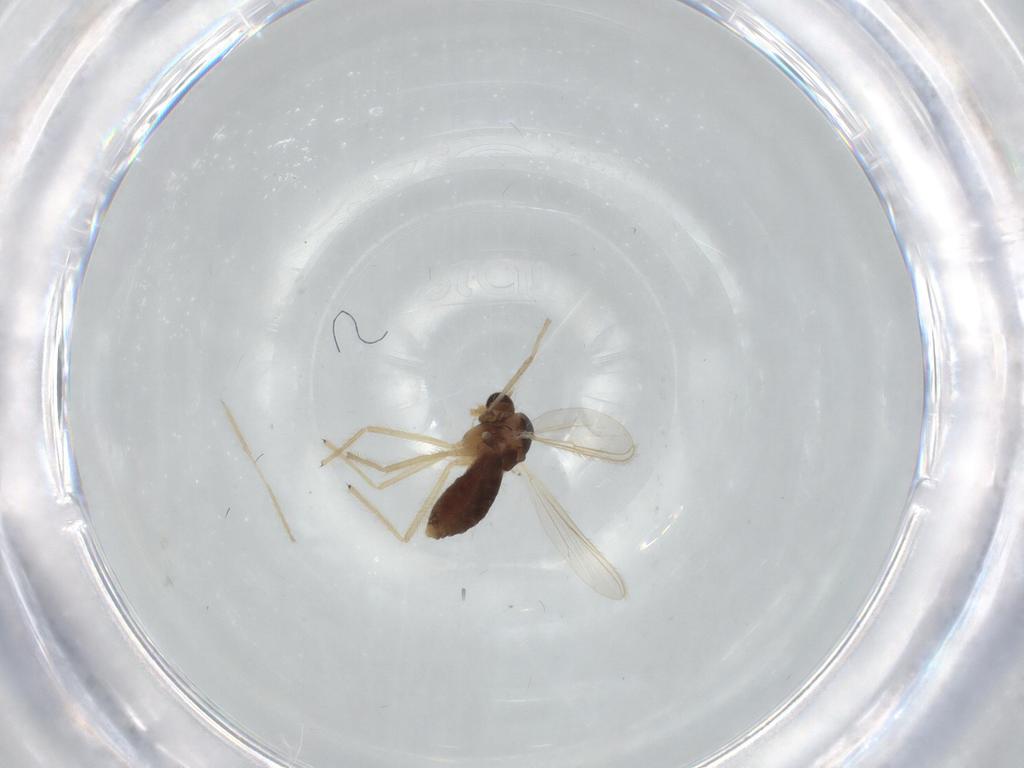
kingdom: Animalia
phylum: Arthropoda
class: Insecta
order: Diptera
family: Chironomidae
